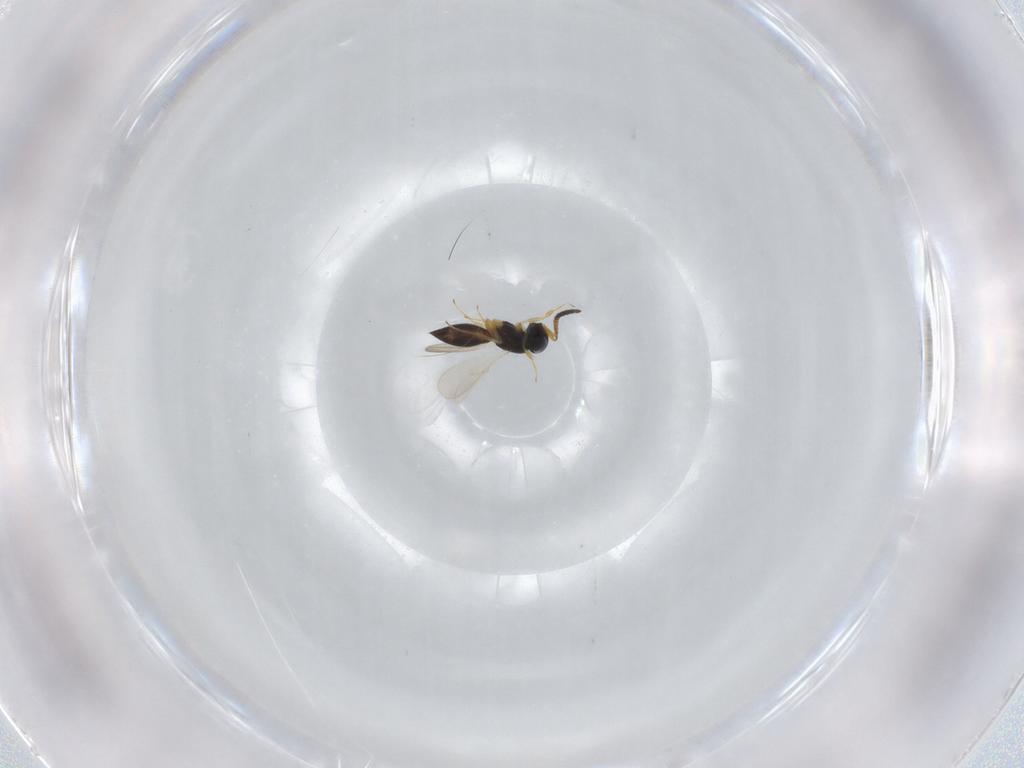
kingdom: Animalia
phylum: Arthropoda
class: Insecta
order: Hymenoptera
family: Scelionidae
